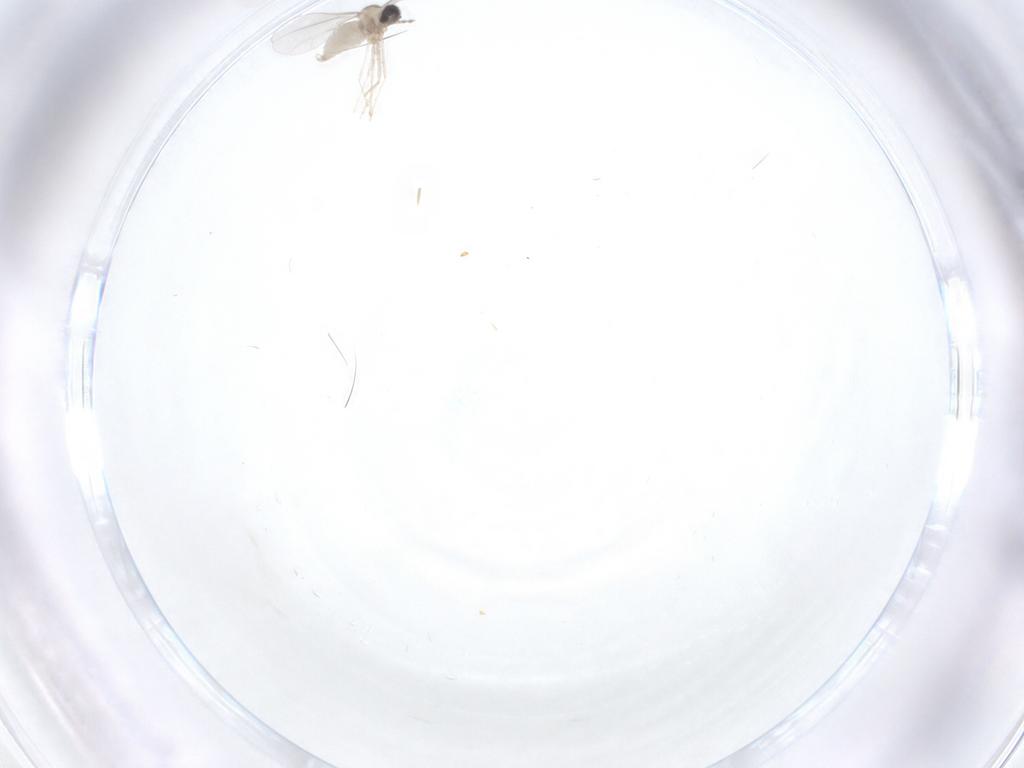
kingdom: Animalia
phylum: Arthropoda
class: Insecta
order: Diptera
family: Cecidomyiidae
